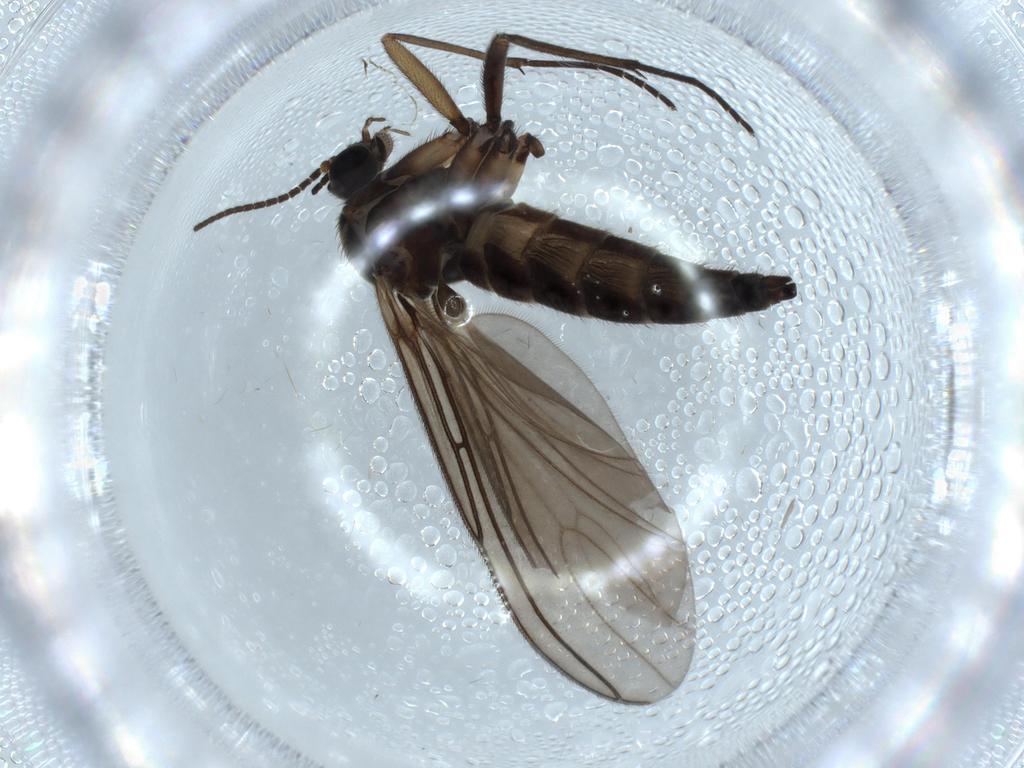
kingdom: Animalia
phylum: Arthropoda
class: Insecta
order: Diptera
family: Sciaridae
